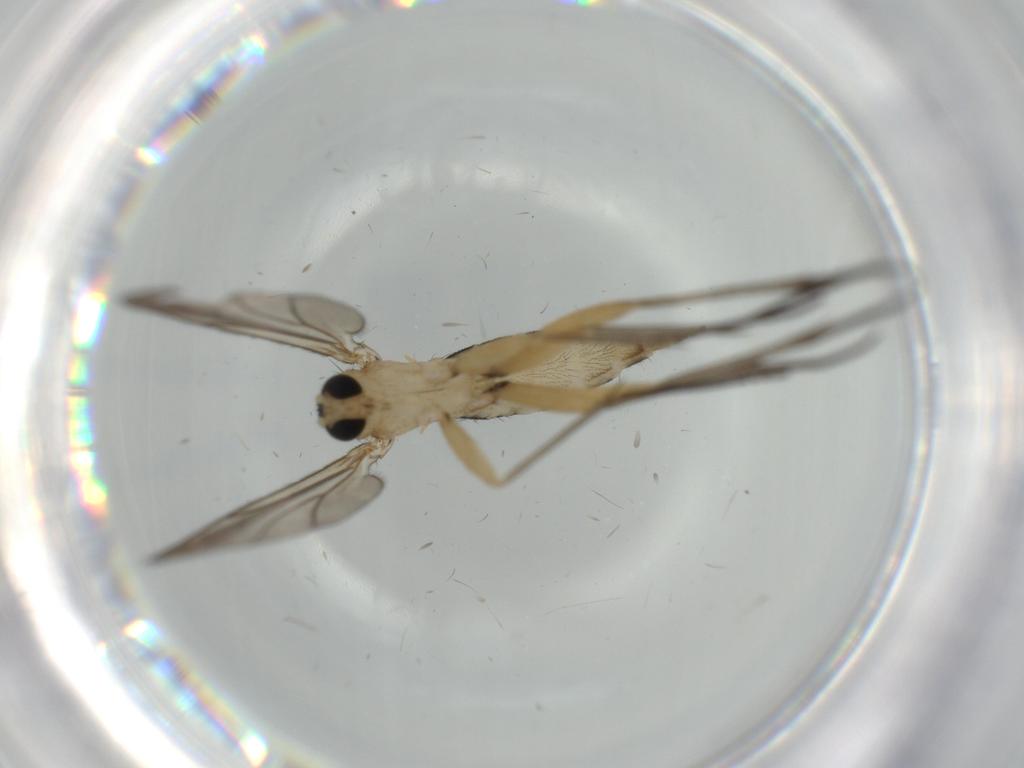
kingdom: Animalia
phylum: Arthropoda
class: Insecta
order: Diptera
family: Sciaridae
